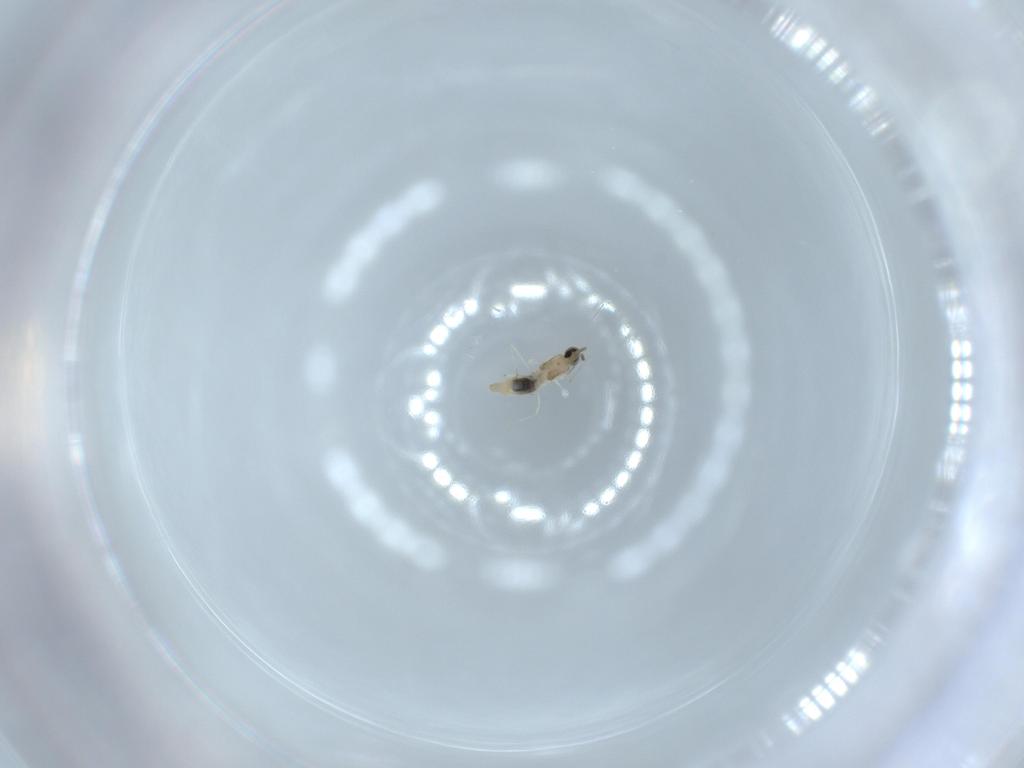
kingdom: Animalia
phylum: Arthropoda
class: Insecta
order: Diptera
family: Cecidomyiidae
